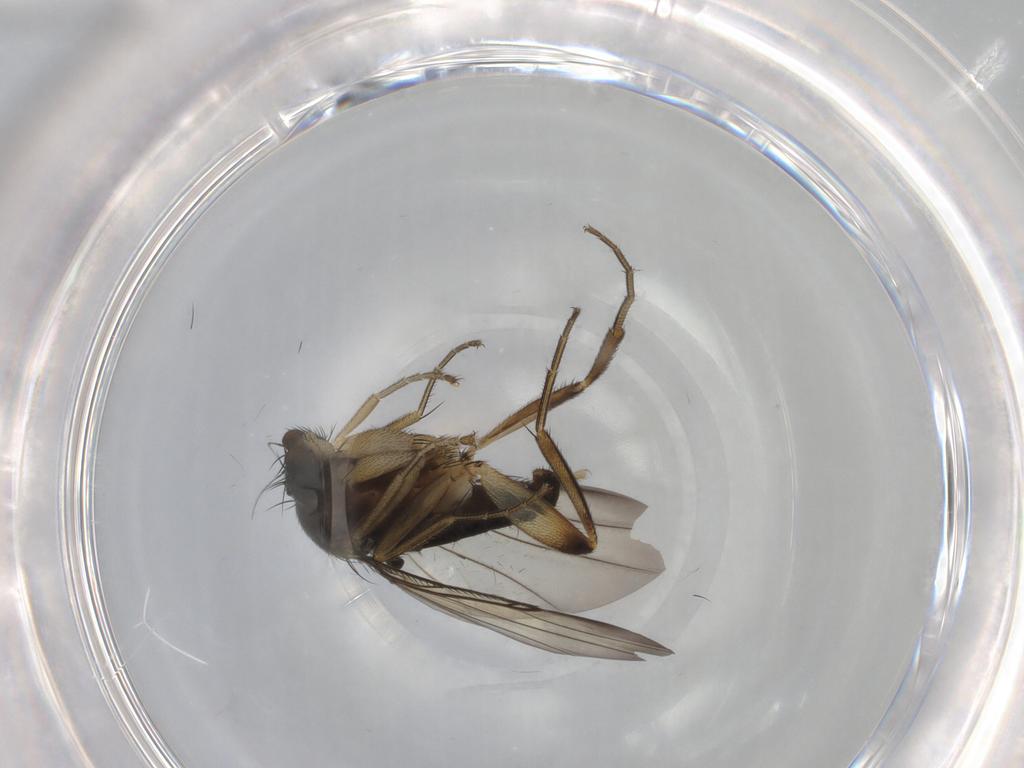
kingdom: Animalia
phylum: Arthropoda
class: Insecta
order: Diptera
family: Sciaridae
